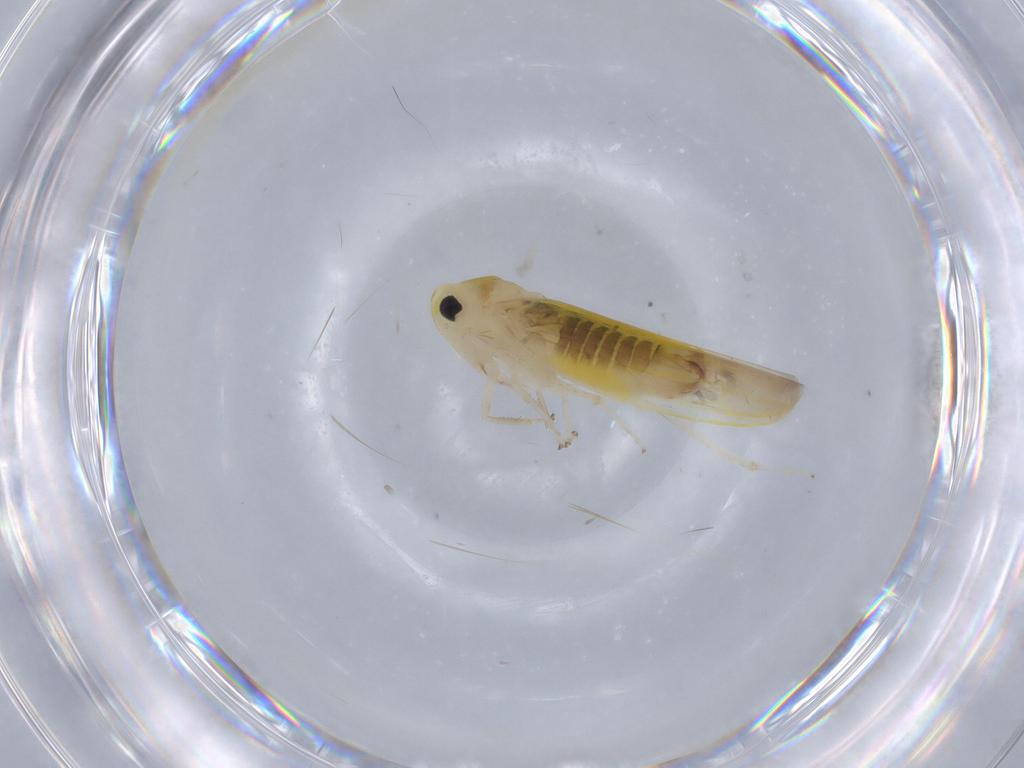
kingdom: Animalia
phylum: Arthropoda
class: Insecta
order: Hemiptera
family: Cicadellidae
